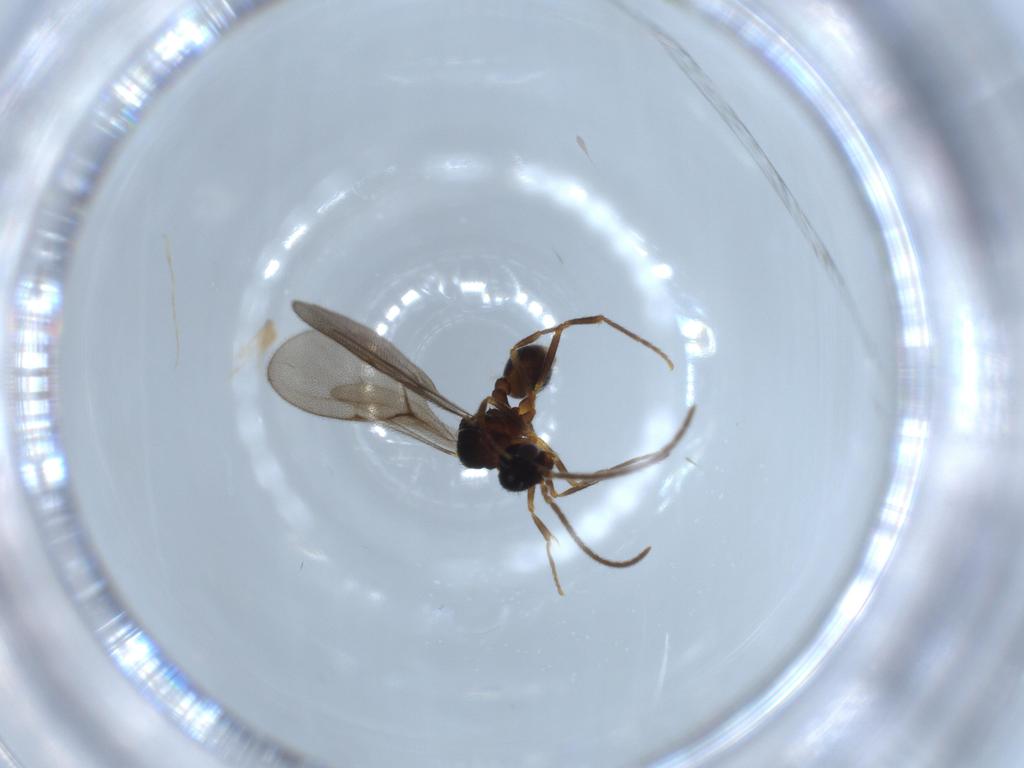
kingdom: Animalia
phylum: Arthropoda
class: Insecta
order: Hymenoptera
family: Formicidae
